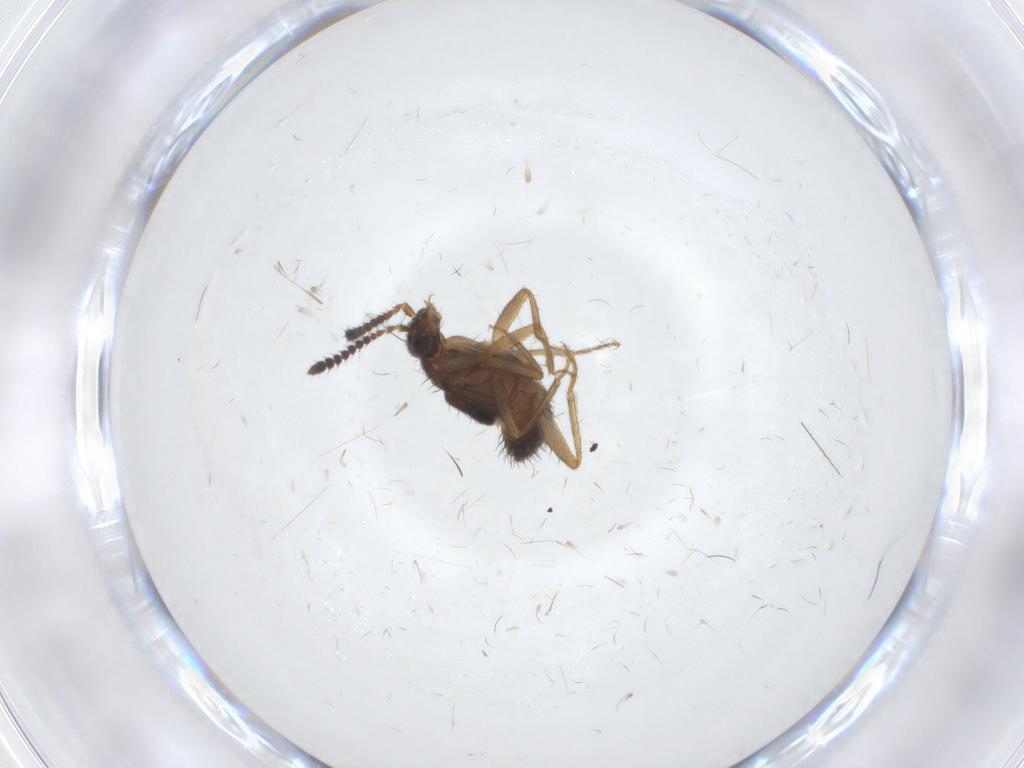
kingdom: Animalia
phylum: Arthropoda
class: Insecta
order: Coleoptera
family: Staphylinidae
